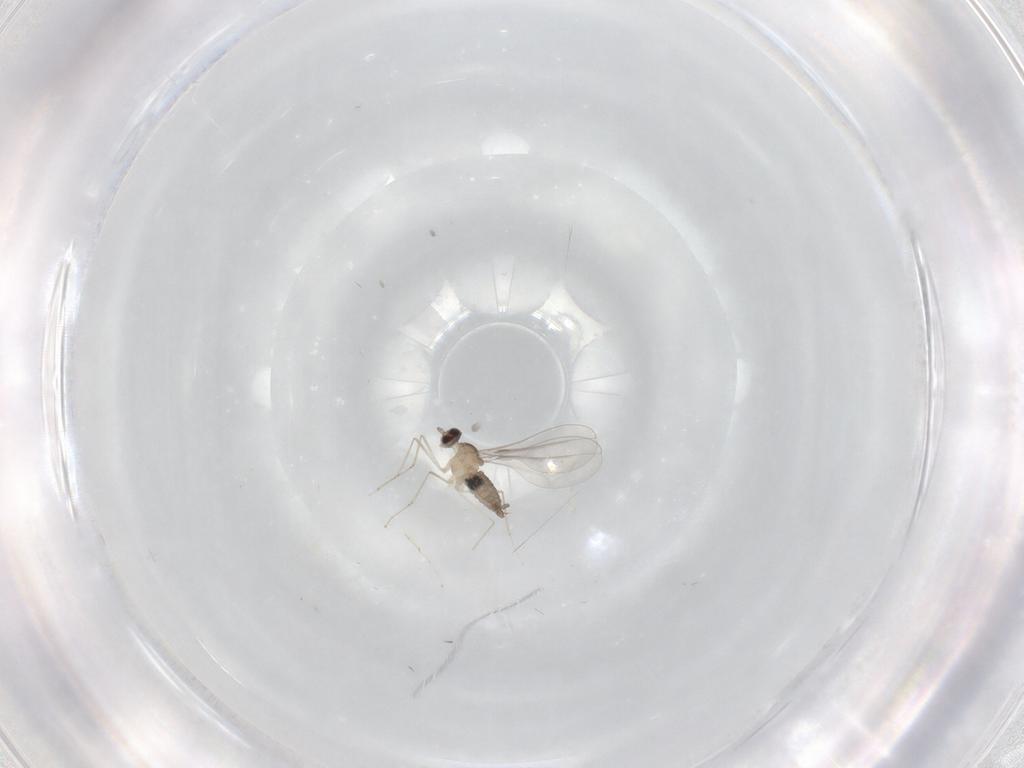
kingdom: Animalia
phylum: Arthropoda
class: Insecta
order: Diptera
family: Cecidomyiidae
